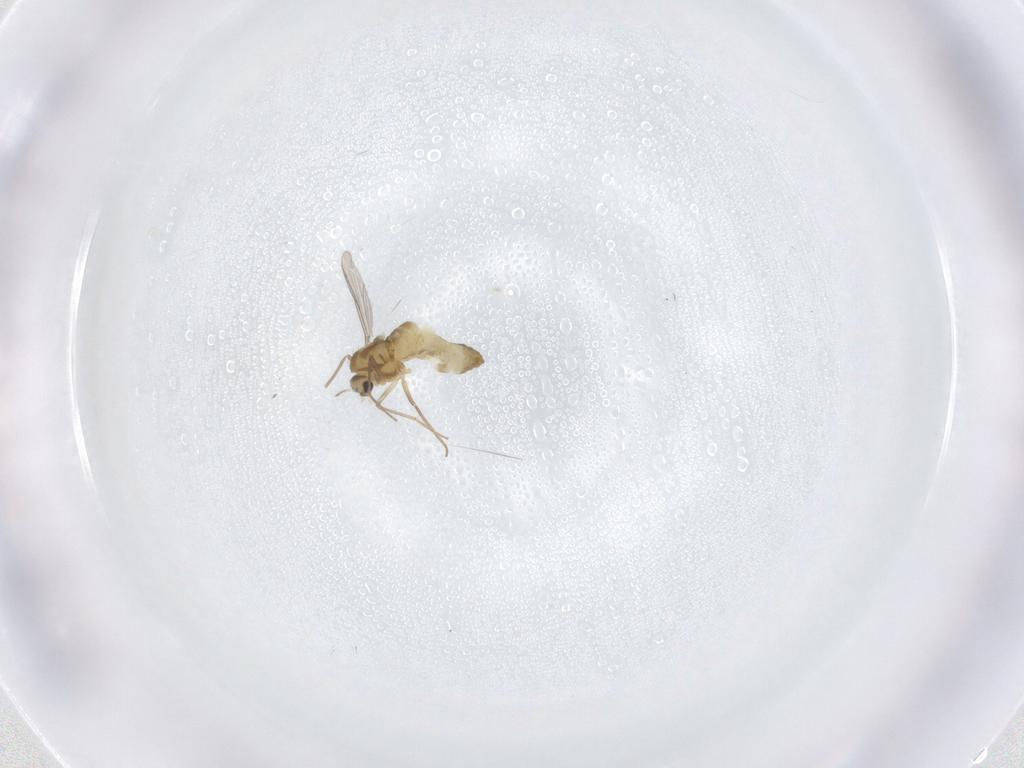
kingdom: Animalia
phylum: Arthropoda
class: Insecta
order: Diptera
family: Chironomidae
